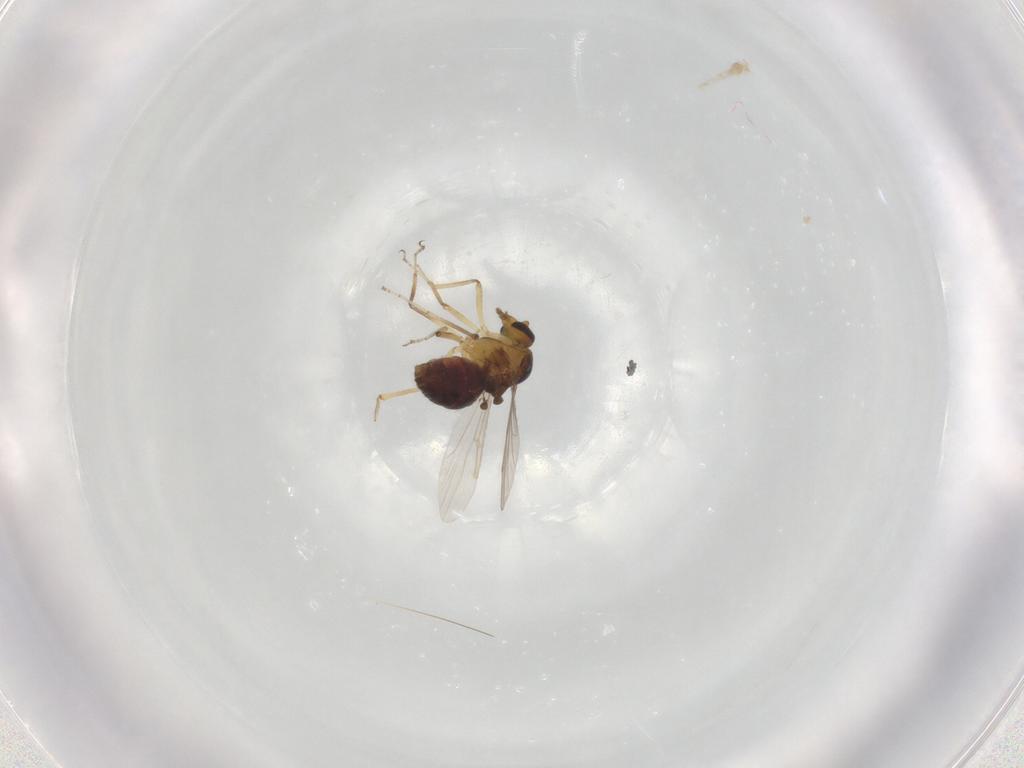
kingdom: Animalia
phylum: Arthropoda
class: Insecta
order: Diptera
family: Ceratopogonidae
